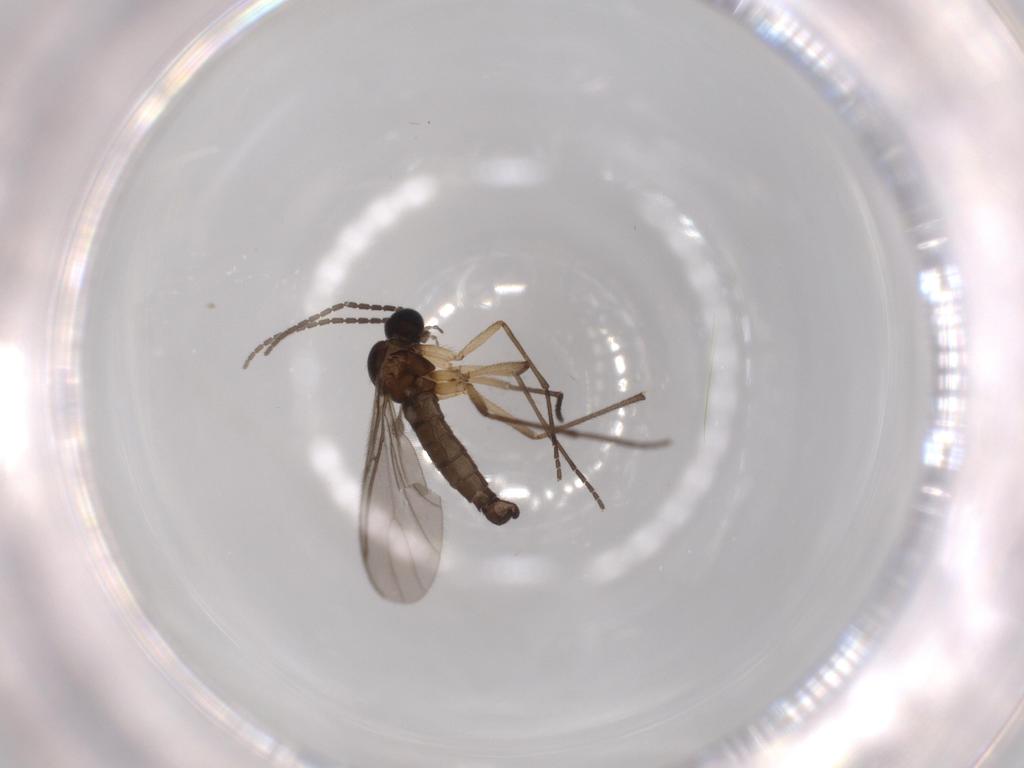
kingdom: Animalia
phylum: Arthropoda
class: Insecta
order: Diptera
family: Sciaridae
